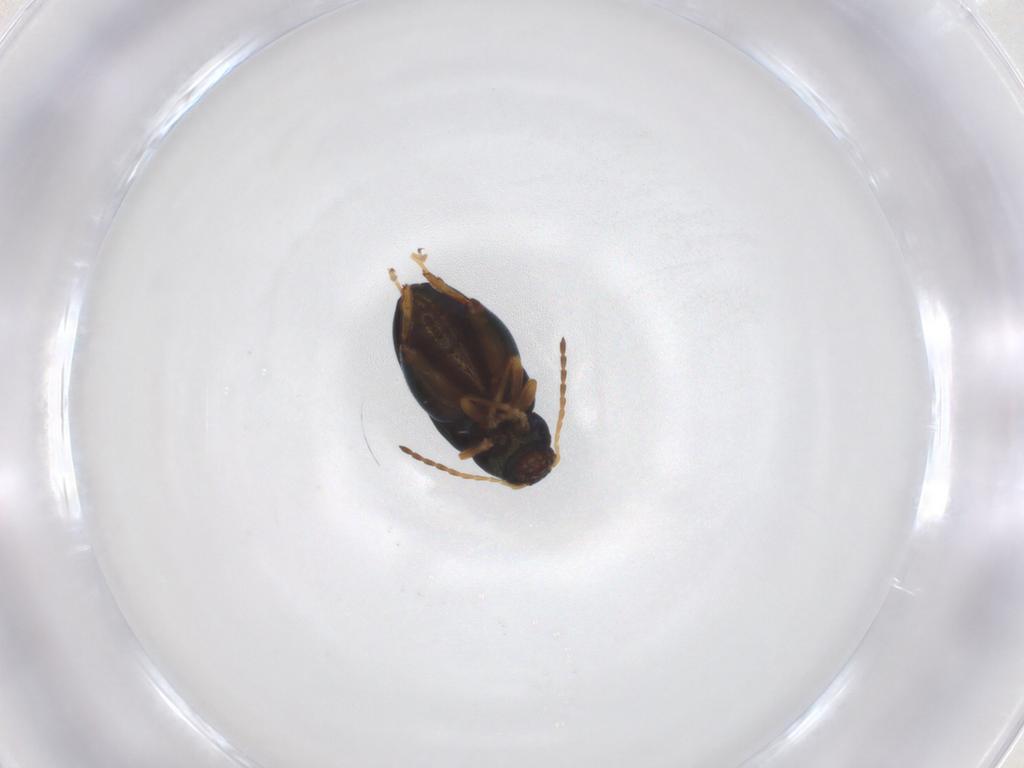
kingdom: Animalia
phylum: Arthropoda
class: Insecta
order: Coleoptera
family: Chrysomelidae
